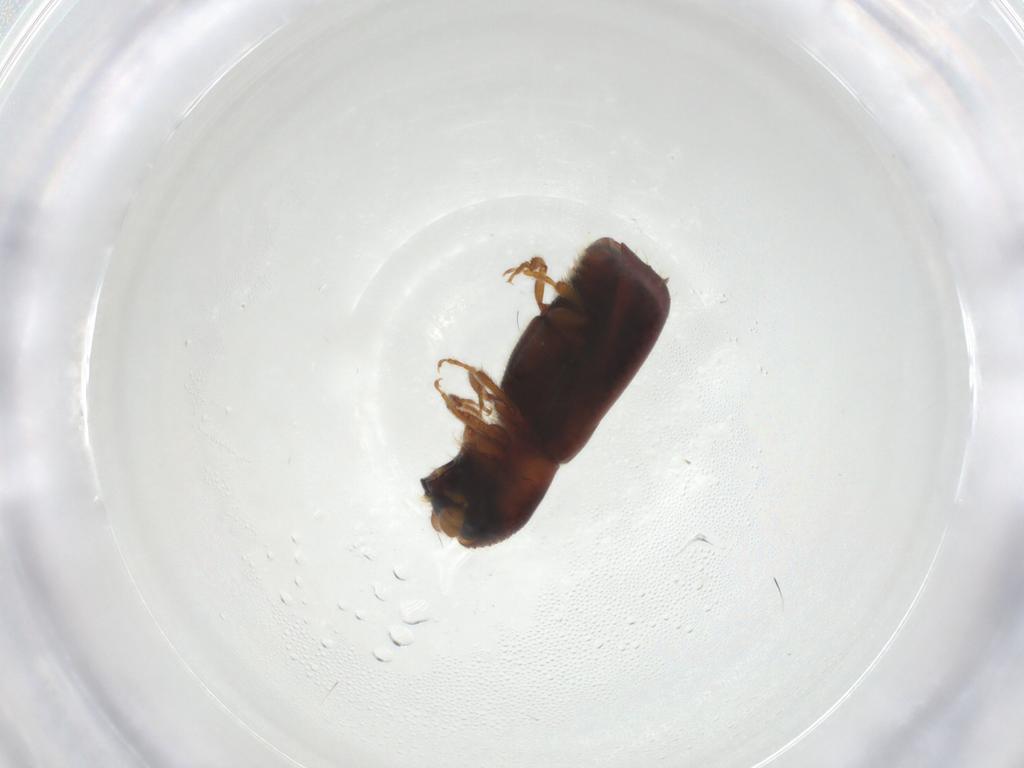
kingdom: Animalia
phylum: Arthropoda
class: Insecta
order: Coleoptera
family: Curculionidae
